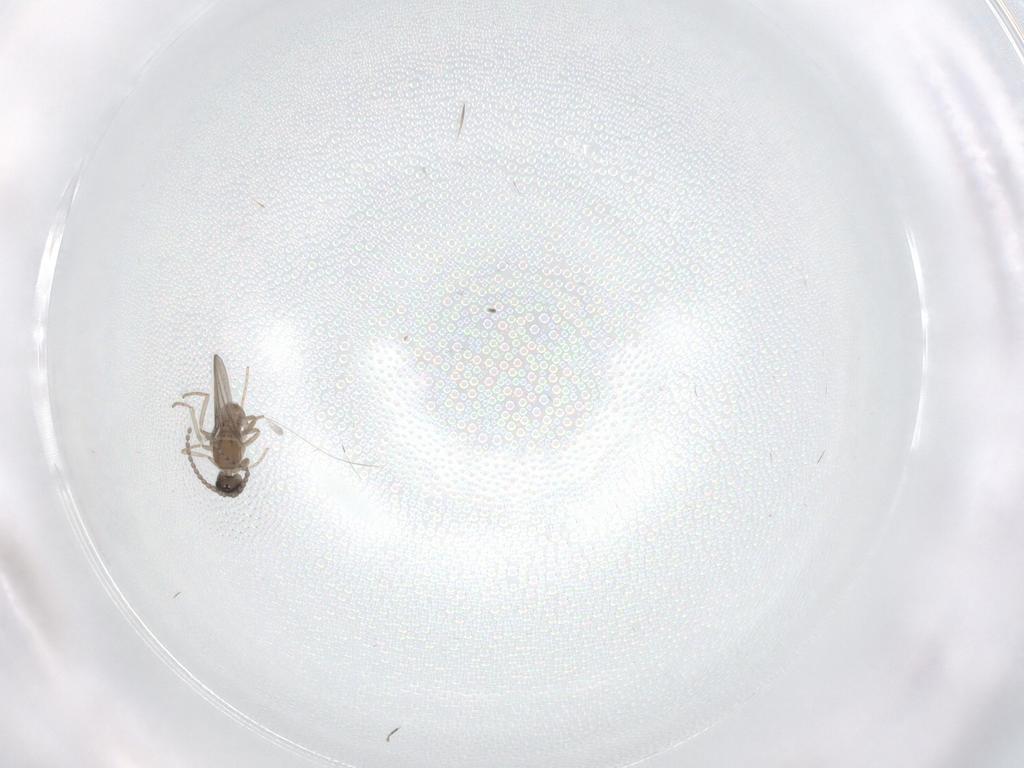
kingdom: Animalia
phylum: Arthropoda
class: Insecta
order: Diptera
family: Cecidomyiidae
